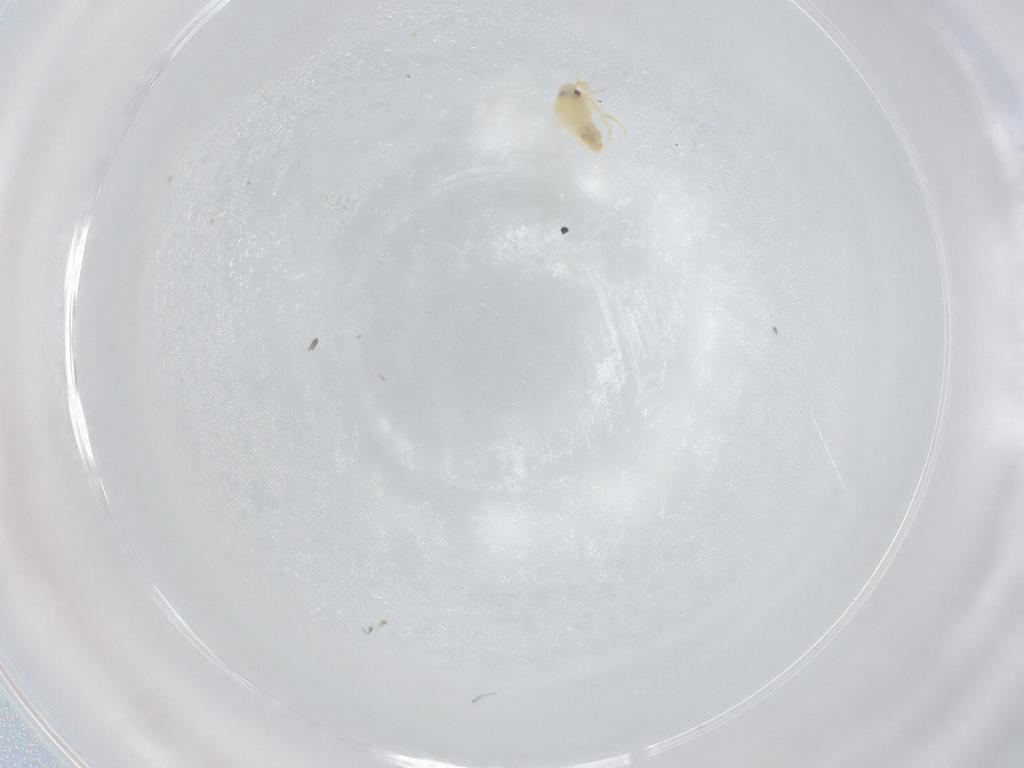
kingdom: Animalia
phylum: Arthropoda
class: Insecta
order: Hemiptera
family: Aleyrodidae
